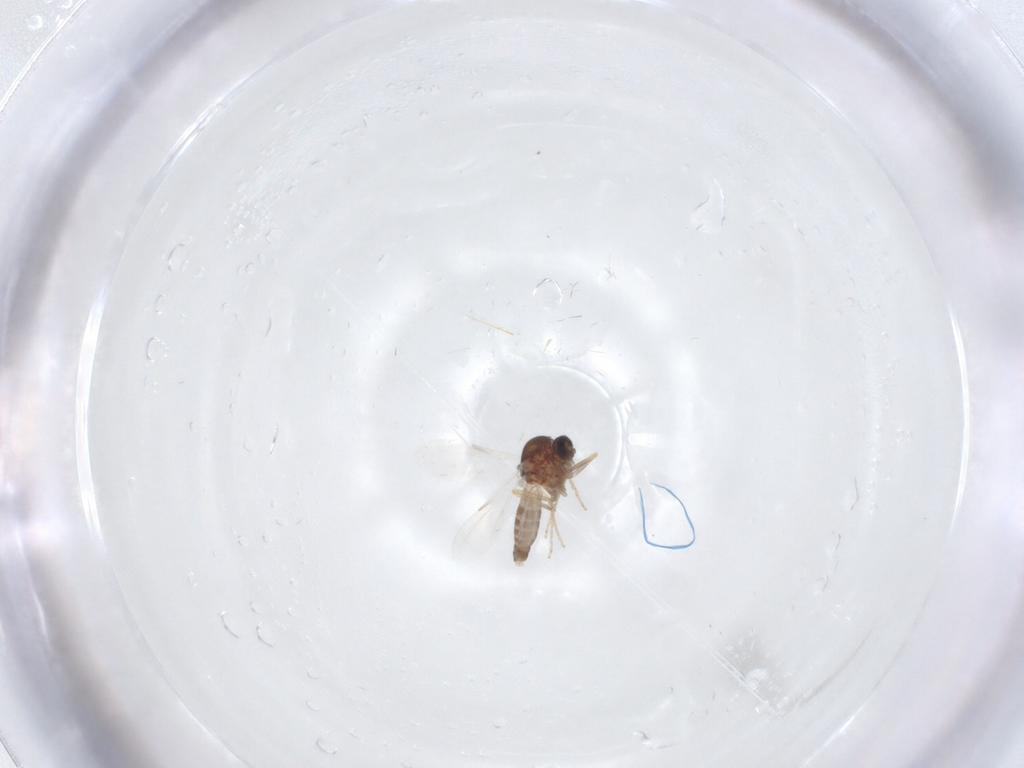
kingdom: Animalia
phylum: Arthropoda
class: Insecta
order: Diptera
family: Ceratopogonidae
